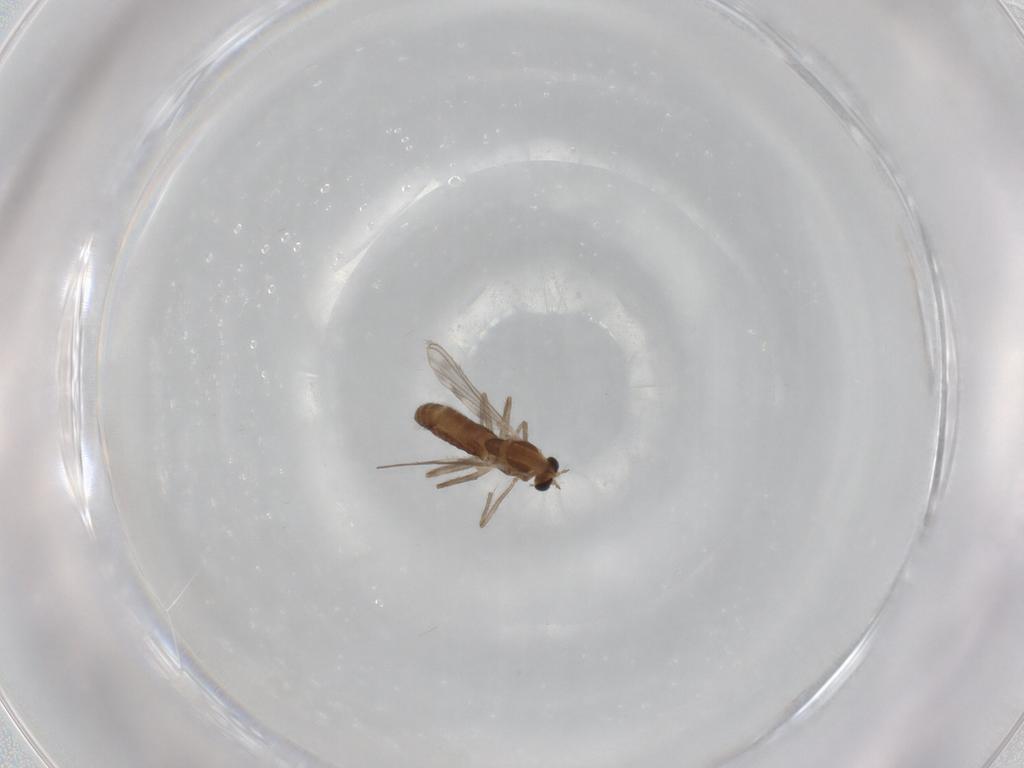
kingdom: Animalia
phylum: Arthropoda
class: Insecta
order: Diptera
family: Chironomidae
